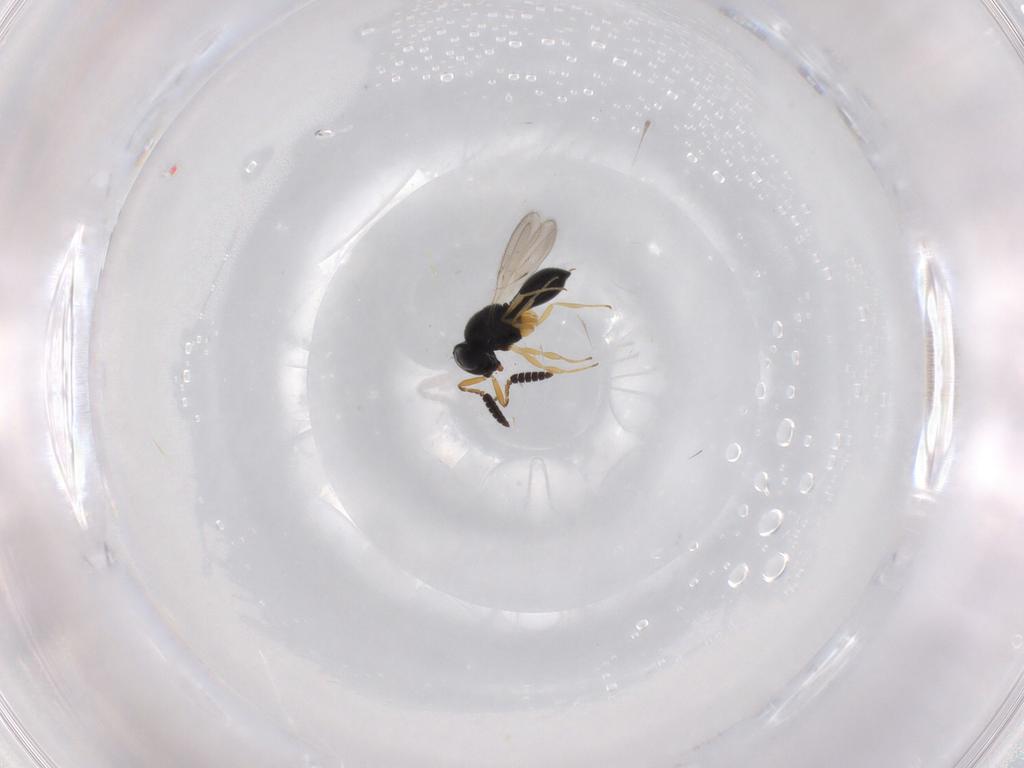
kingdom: Animalia
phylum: Arthropoda
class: Insecta
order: Hymenoptera
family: Scelionidae
